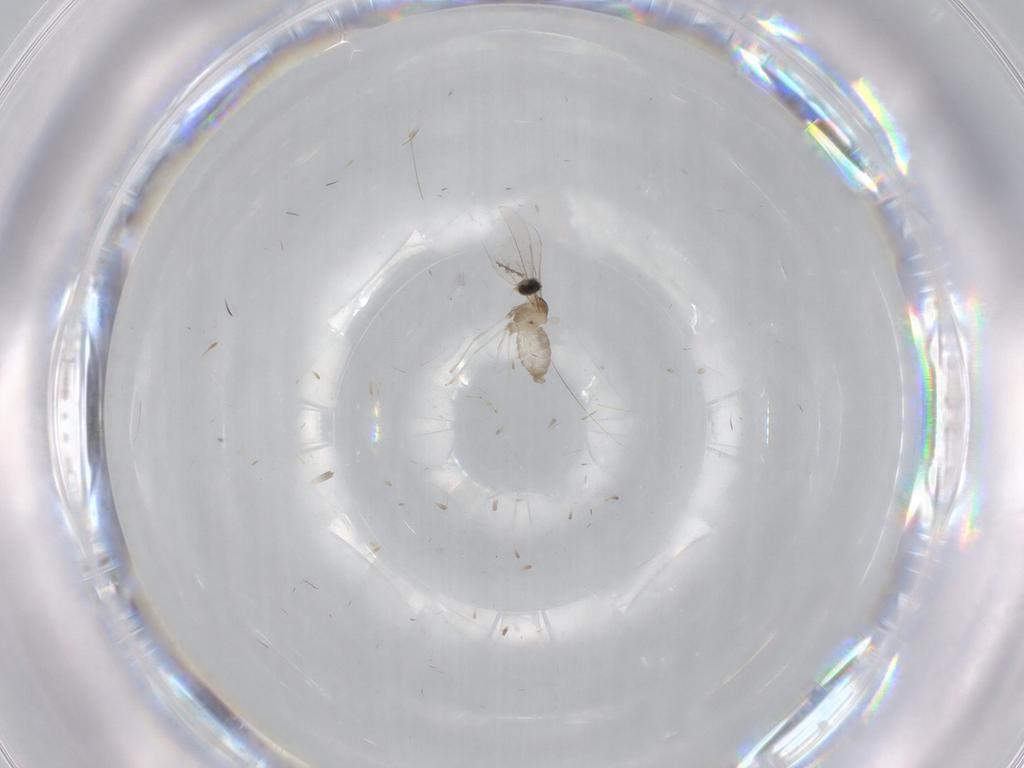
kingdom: Animalia
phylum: Arthropoda
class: Insecta
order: Diptera
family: Cecidomyiidae
